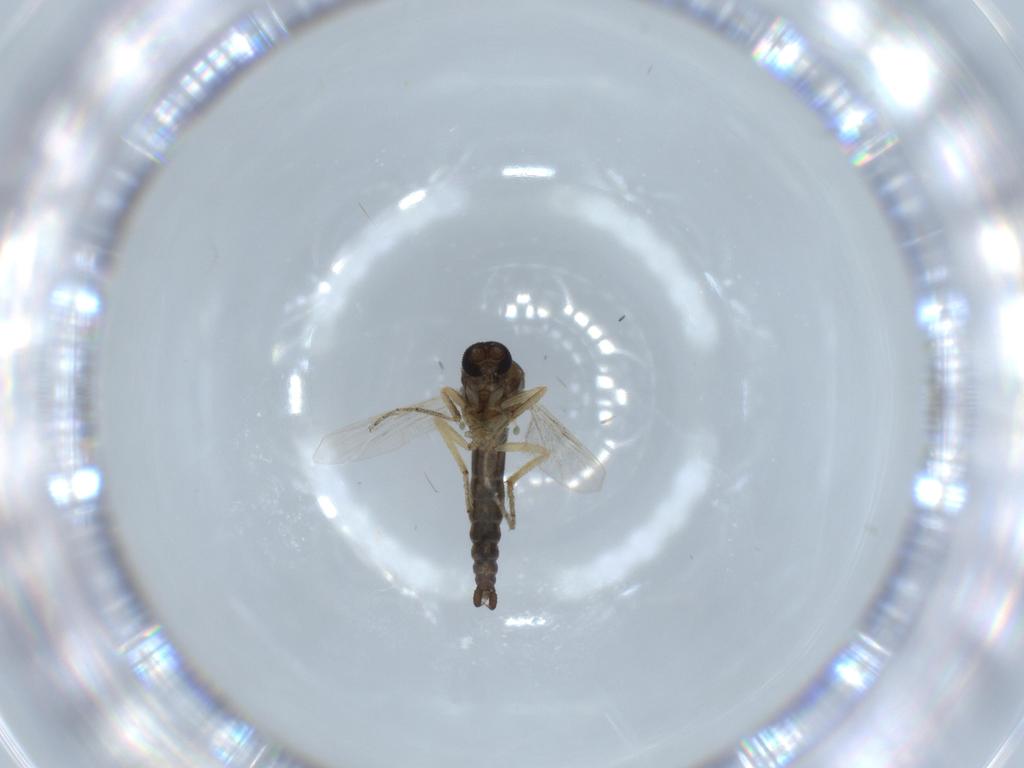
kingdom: Animalia
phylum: Arthropoda
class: Insecta
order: Diptera
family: Ceratopogonidae
